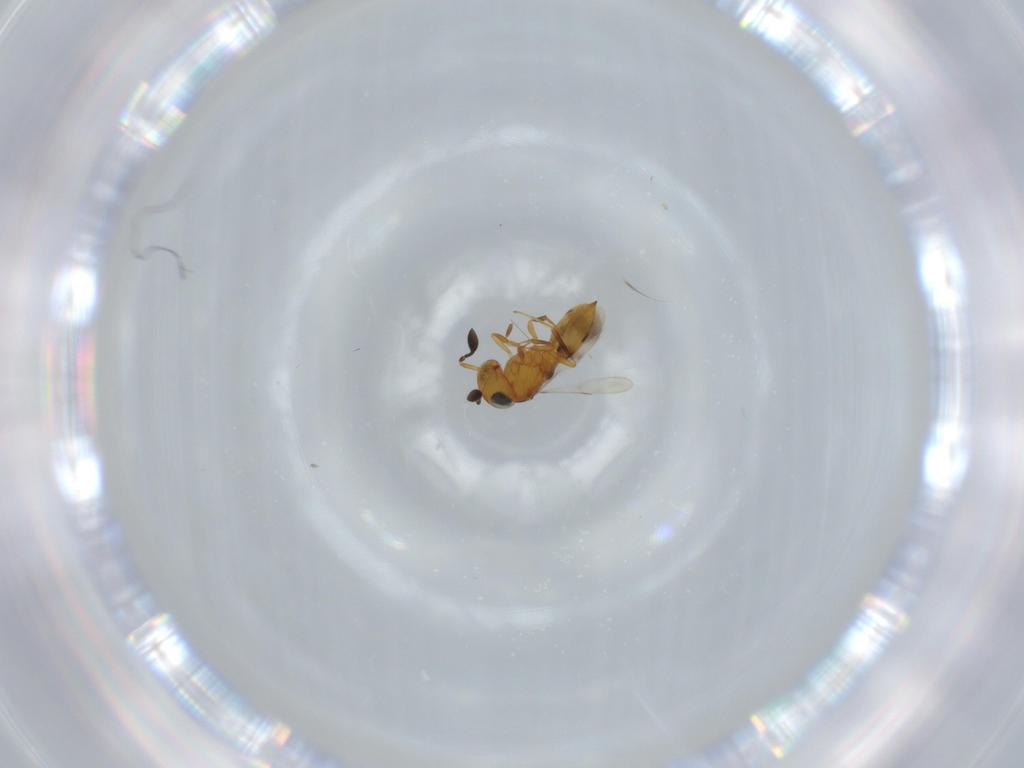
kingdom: Animalia
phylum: Arthropoda
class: Insecta
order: Hymenoptera
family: Scelionidae
